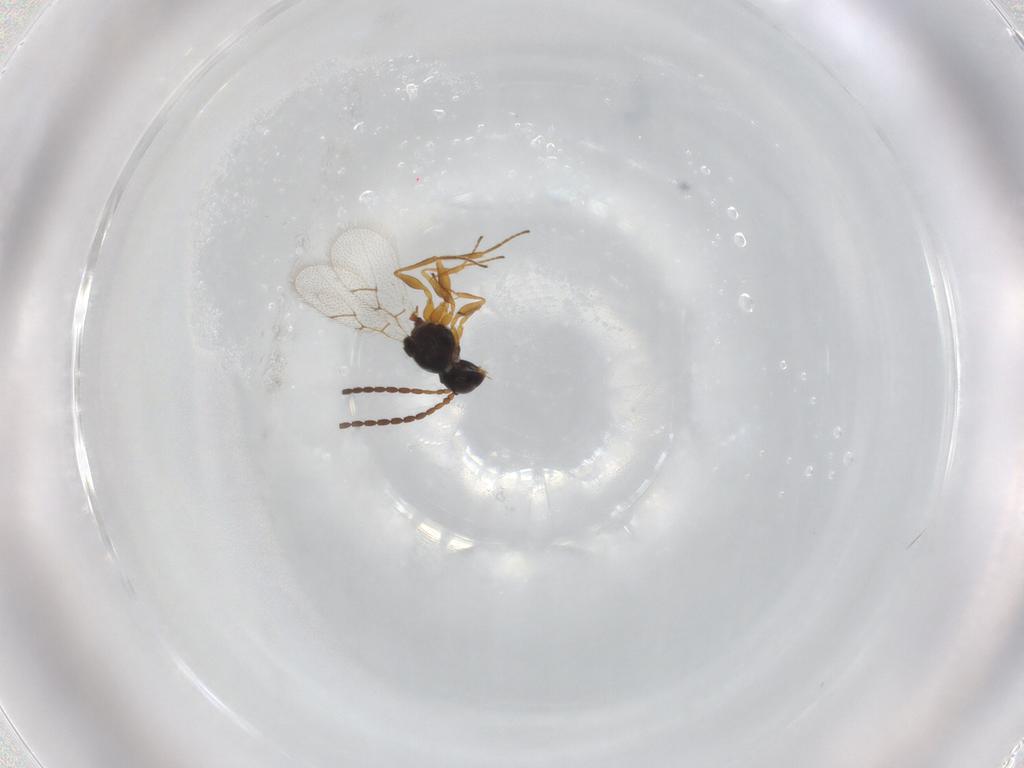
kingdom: Animalia
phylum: Arthropoda
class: Insecta
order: Hymenoptera
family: Figitidae
